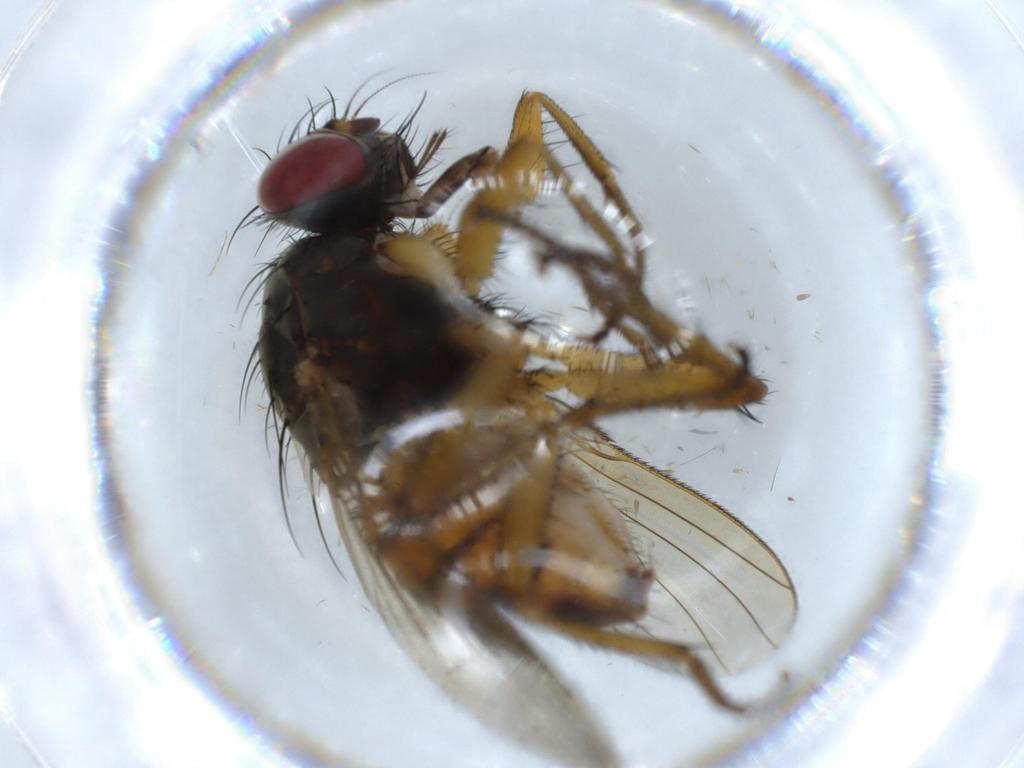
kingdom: Animalia
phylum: Arthropoda
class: Insecta
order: Diptera
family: Muscidae
